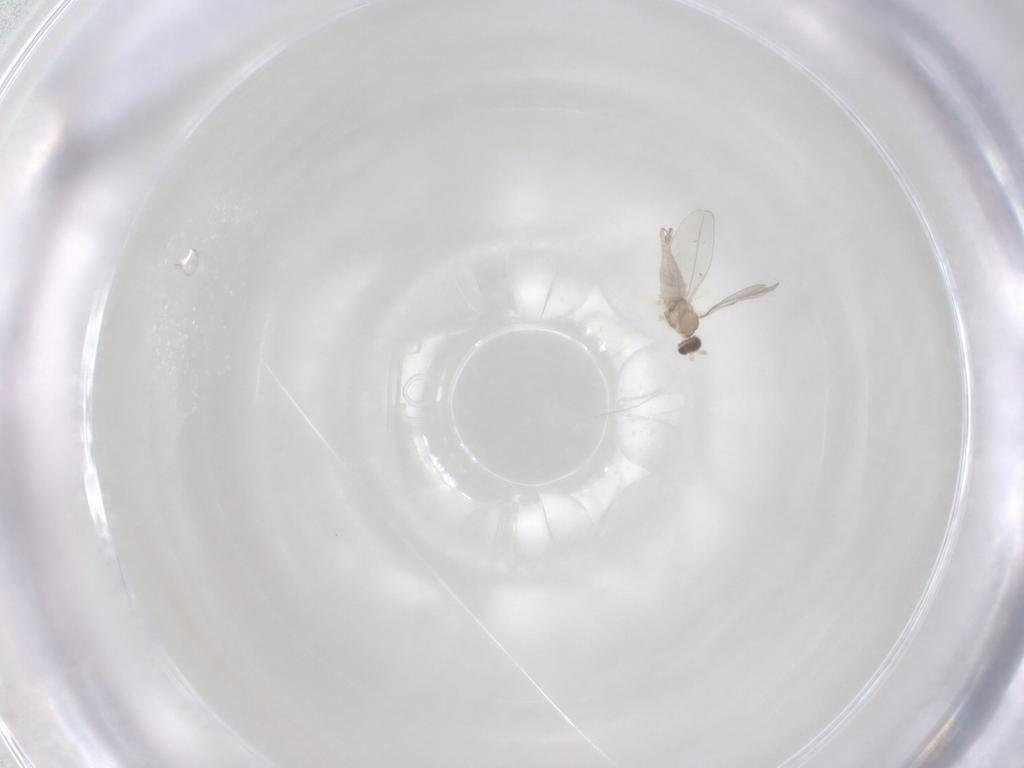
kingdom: Animalia
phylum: Arthropoda
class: Insecta
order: Diptera
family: Cecidomyiidae
